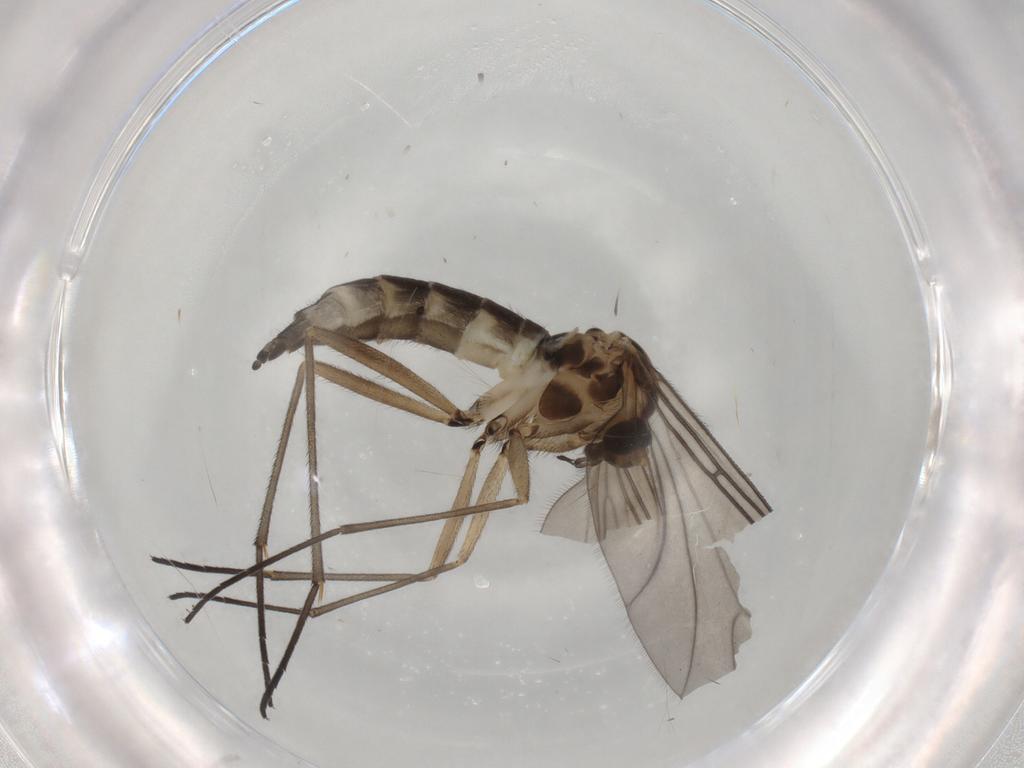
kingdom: Animalia
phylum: Arthropoda
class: Insecta
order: Diptera
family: Sciaridae
